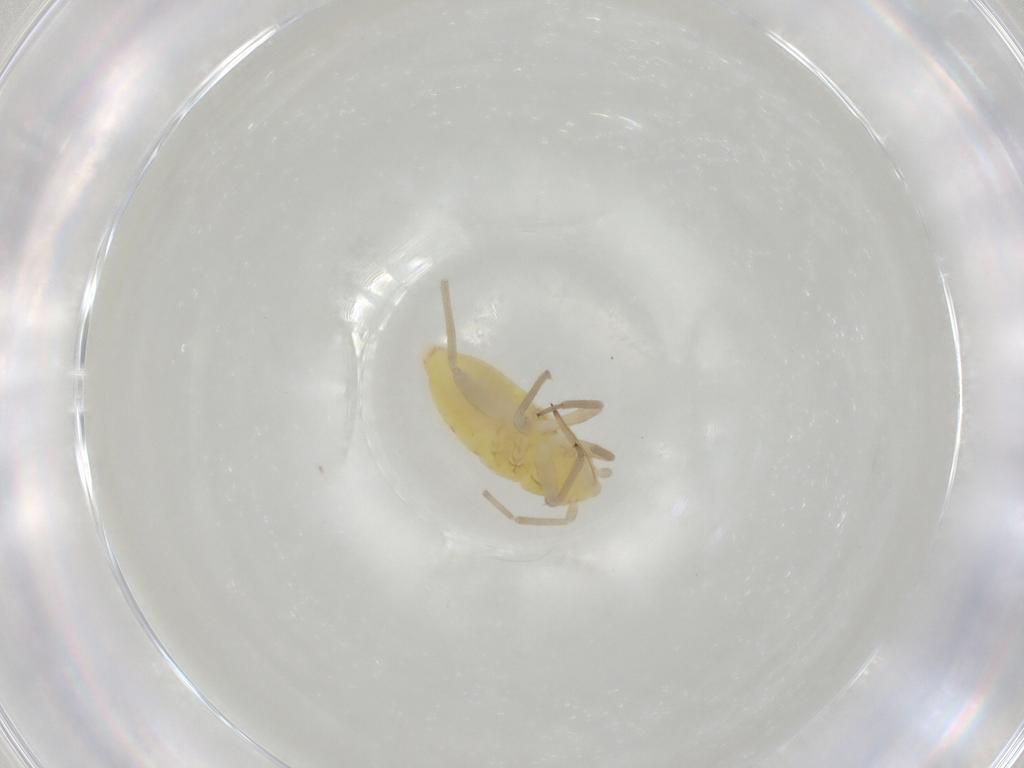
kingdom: Animalia
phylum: Arthropoda
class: Insecta
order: Hemiptera
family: Miridae
